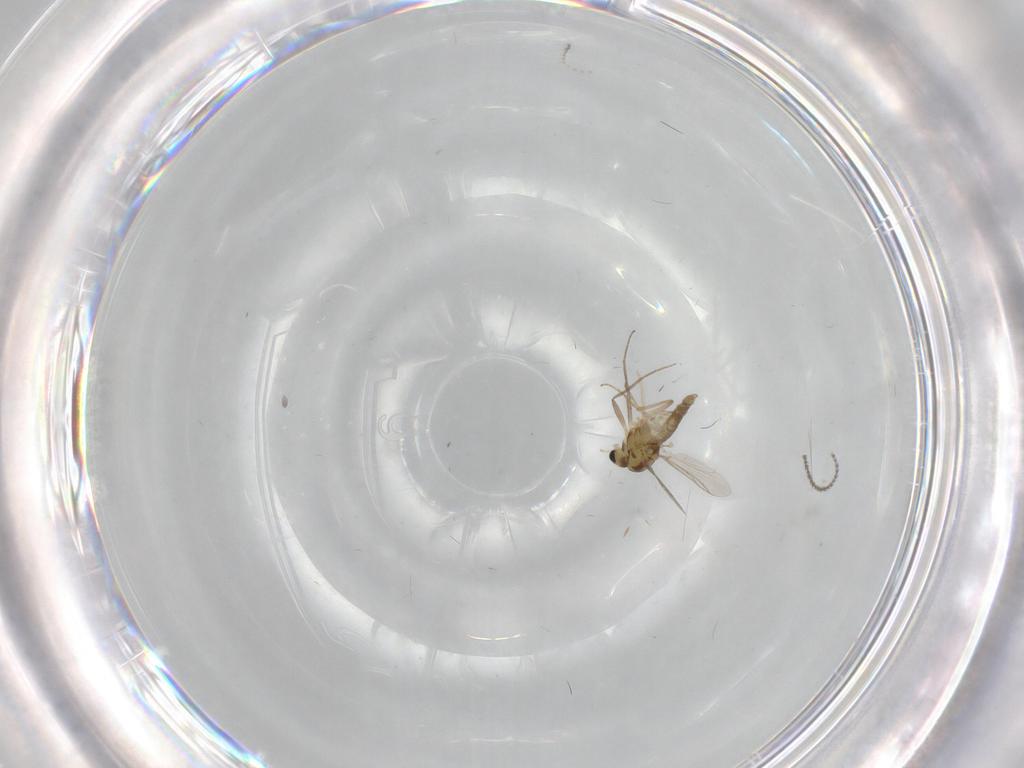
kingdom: Animalia
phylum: Arthropoda
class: Insecta
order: Diptera
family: Chironomidae
